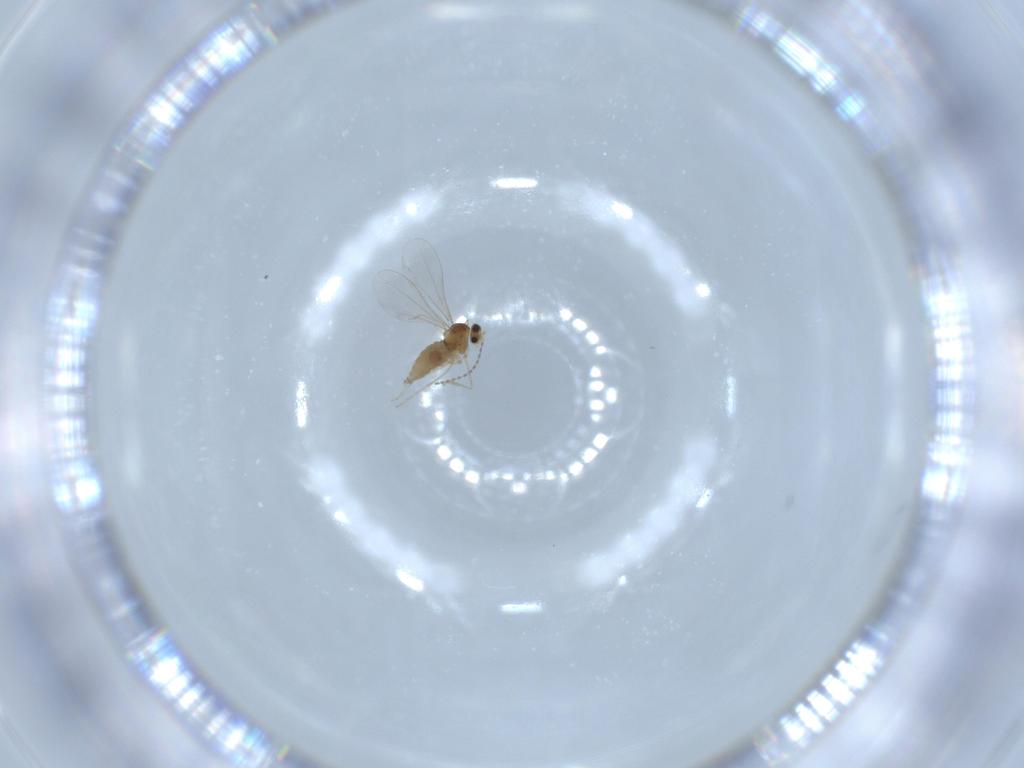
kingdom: Animalia
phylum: Arthropoda
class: Insecta
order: Diptera
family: Cecidomyiidae
